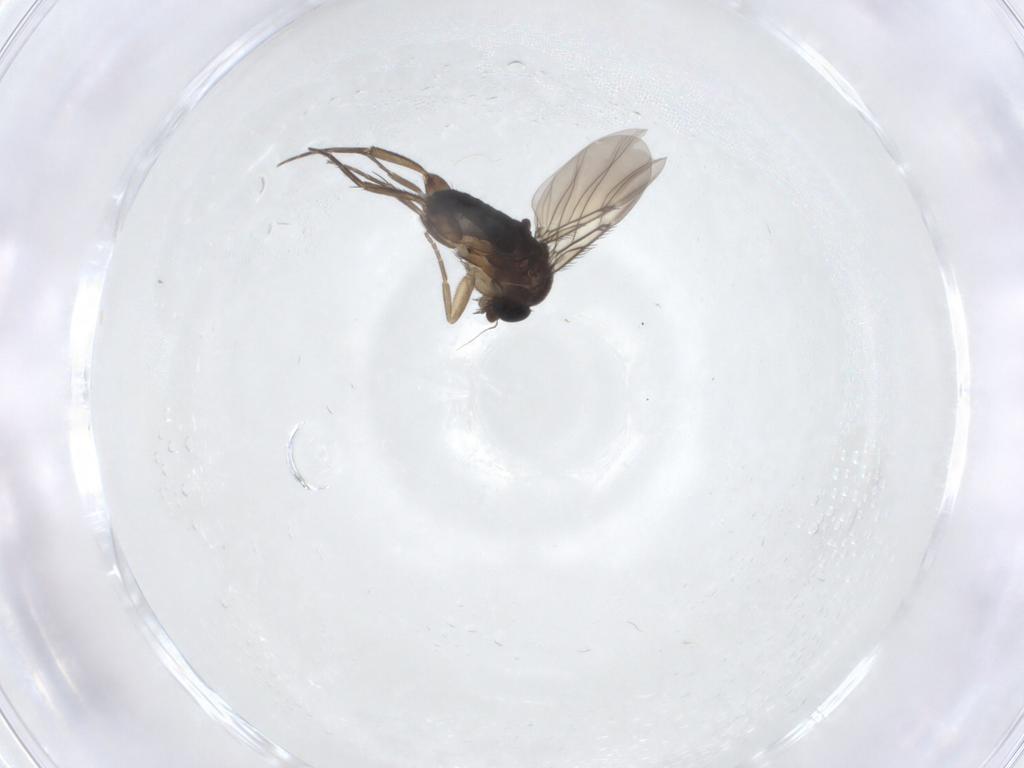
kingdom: Animalia
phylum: Arthropoda
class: Insecta
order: Diptera
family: Phoridae
